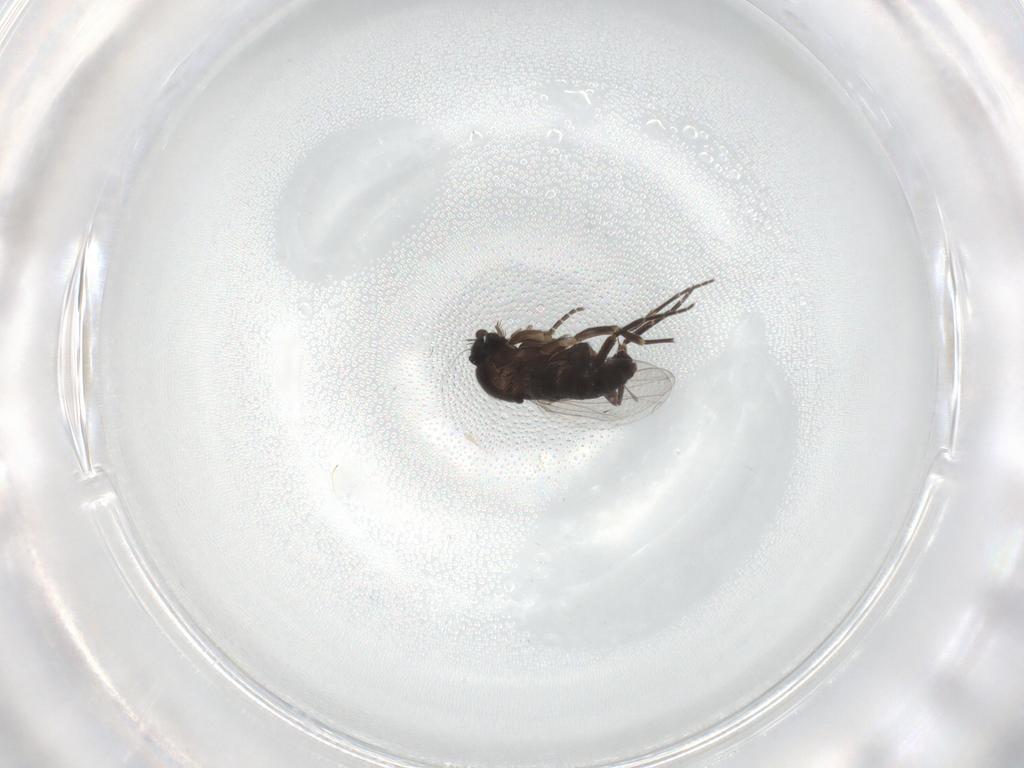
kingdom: Animalia
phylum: Arthropoda
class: Insecta
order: Diptera
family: Phoridae
